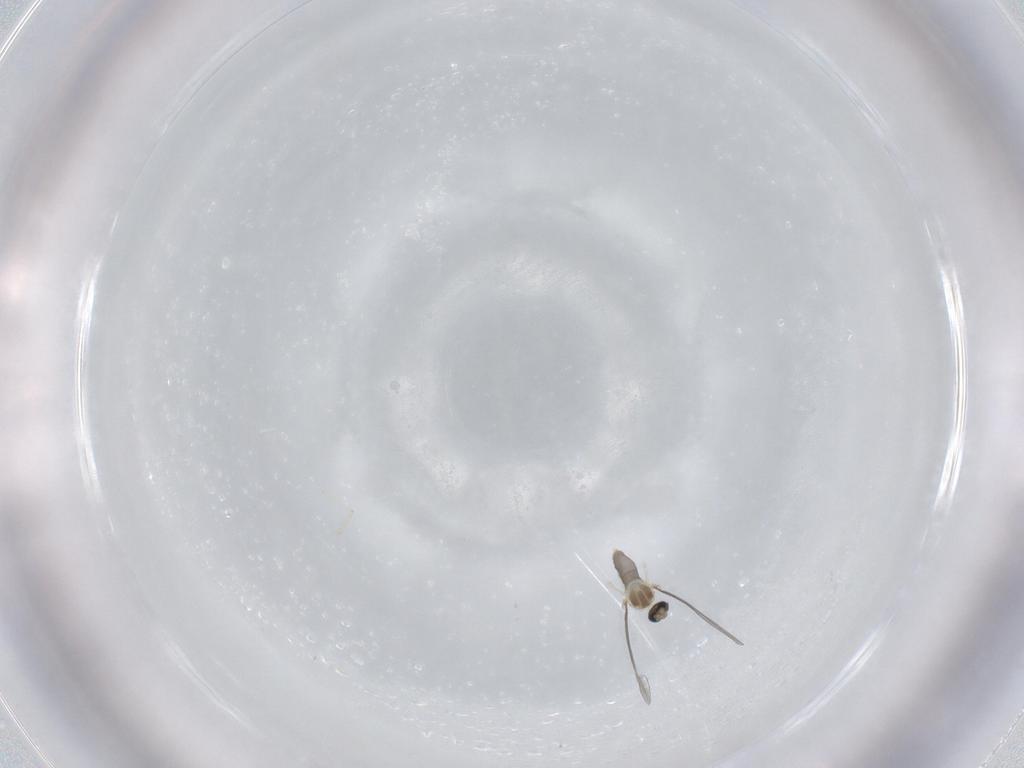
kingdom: Animalia
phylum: Arthropoda
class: Insecta
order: Diptera
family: Cecidomyiidae
